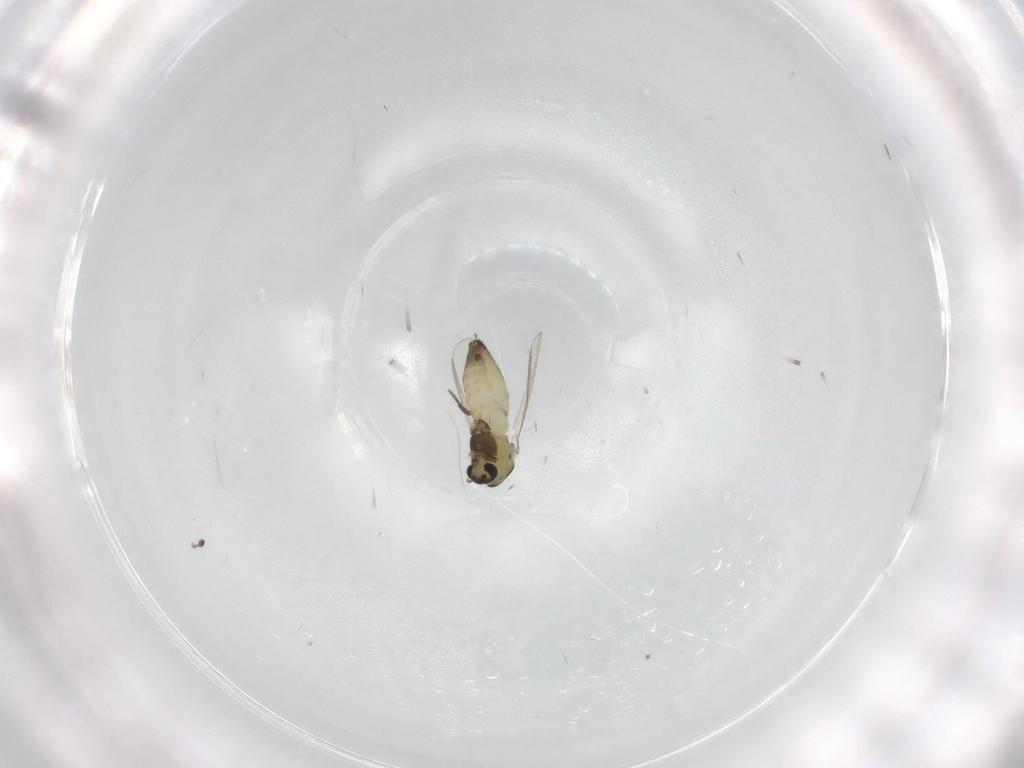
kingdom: Animalia
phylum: Arthropoda
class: Insecta
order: Diptera
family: Chironomidae
